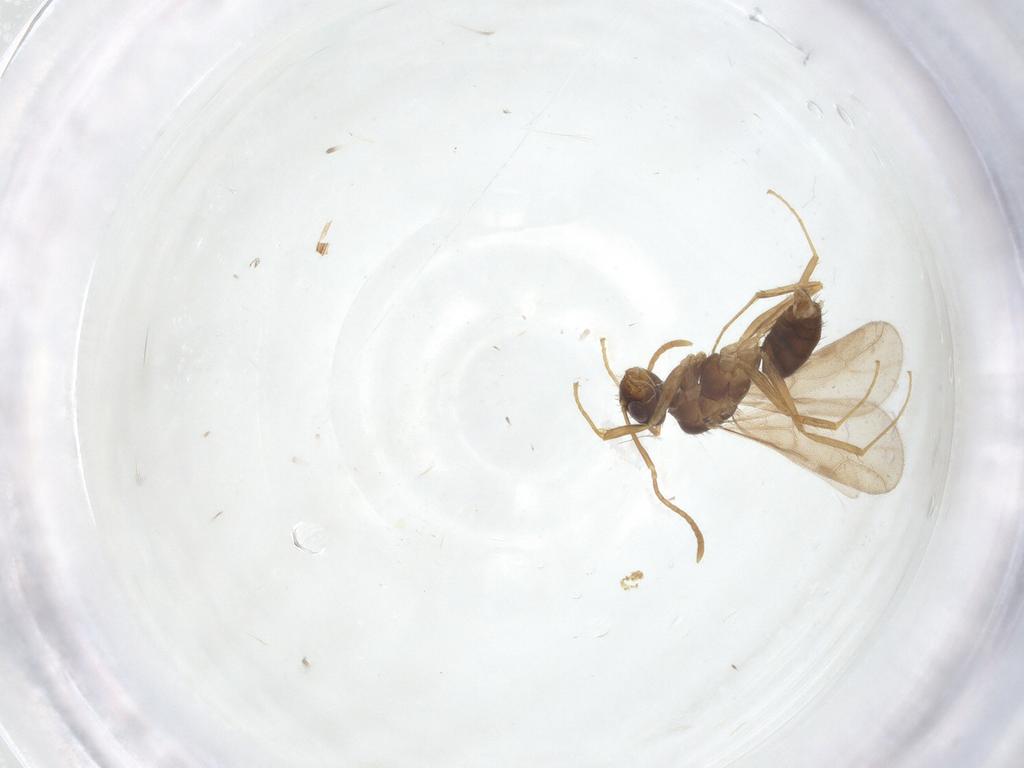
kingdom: Animalia
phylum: Arthropoda
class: Insecta
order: Hymenoptera
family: Formicidae
